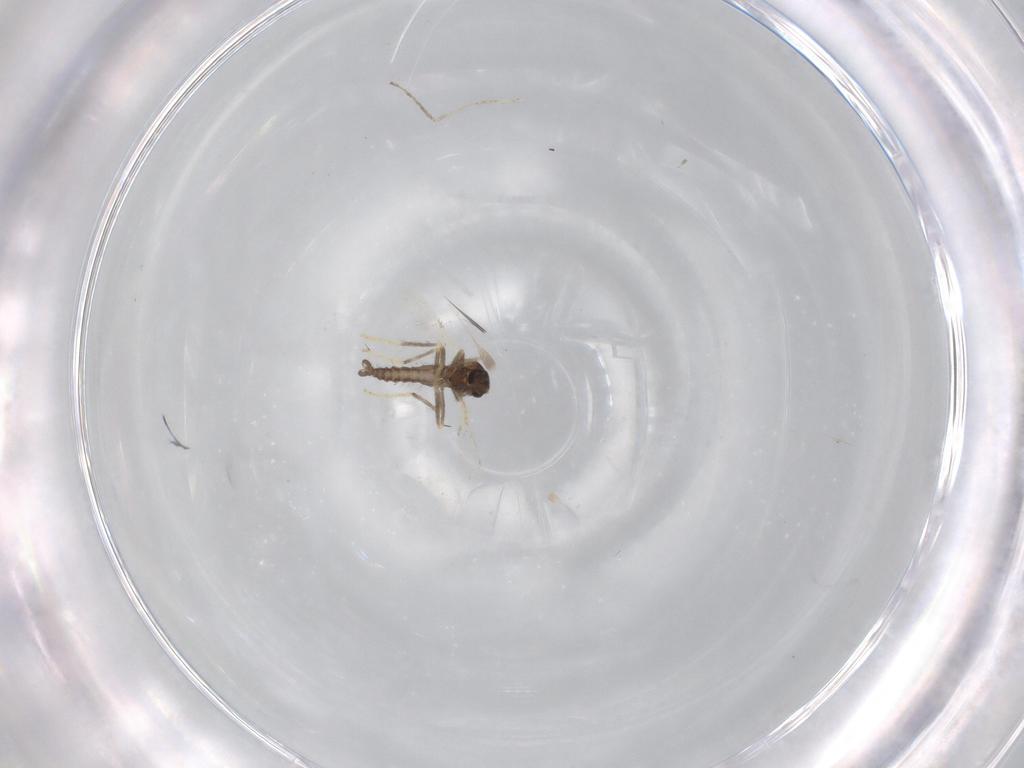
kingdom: Animalia
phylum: Arthropoda
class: Insecta
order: Diptera
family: Ceratopogonidae
